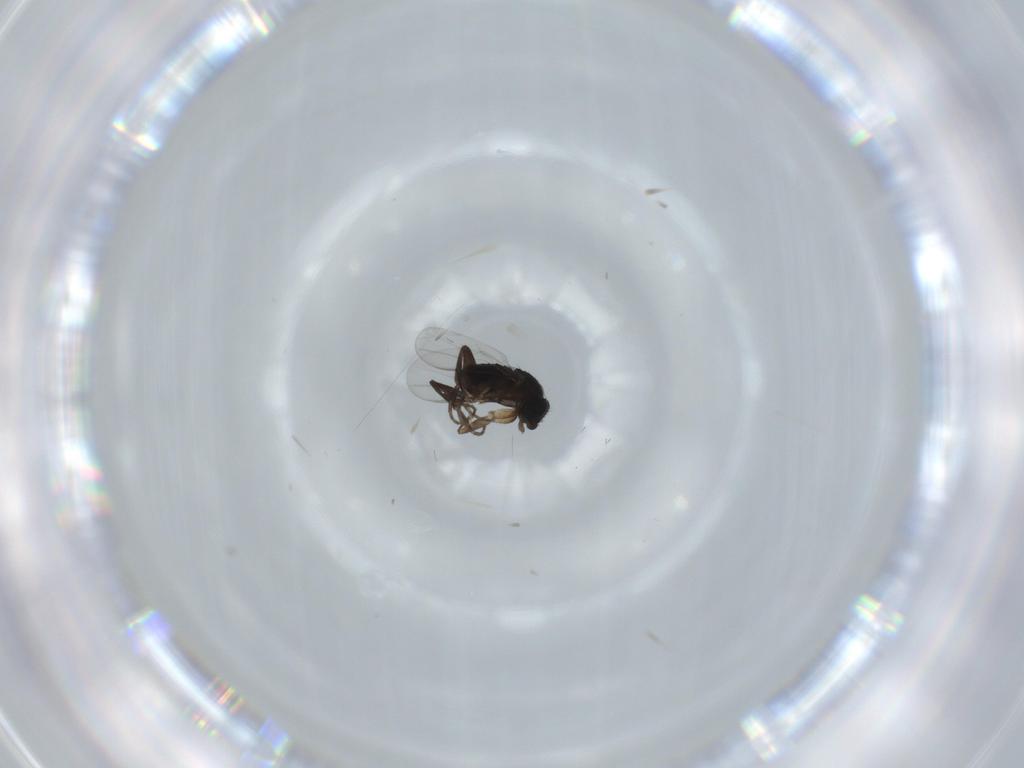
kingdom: Animalia
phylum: Arthropoda
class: Insecta
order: Diptera
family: Phoridae
